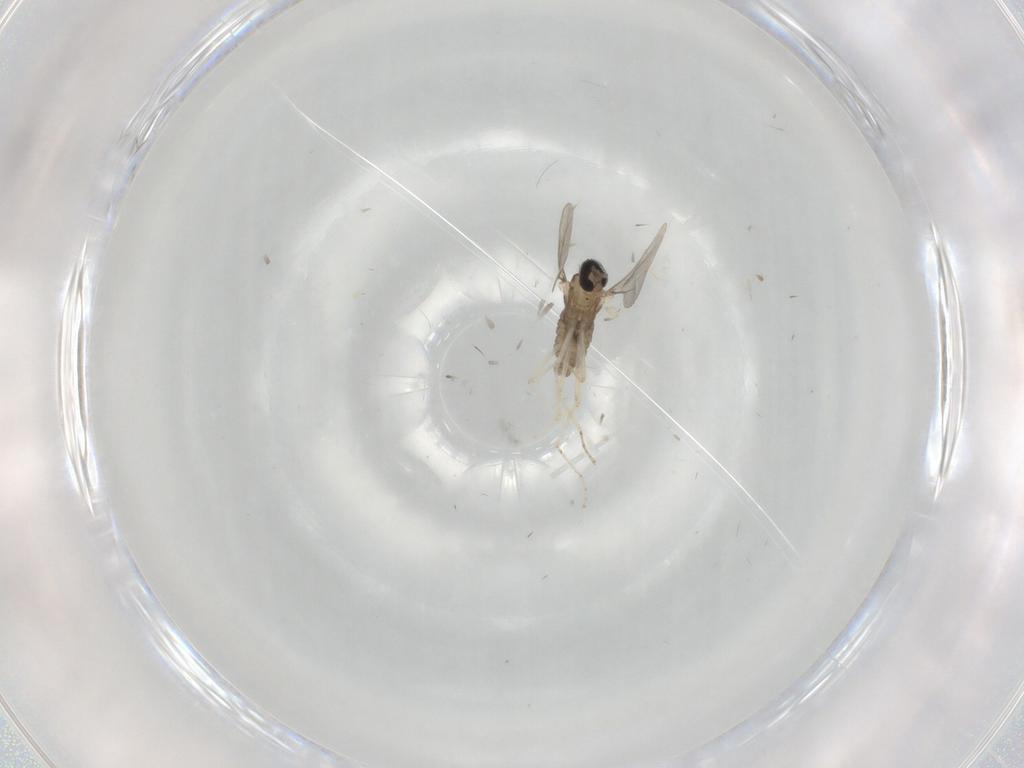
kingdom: Animalia
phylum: Arthropoda
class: Insecta
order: Diptera
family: Cecidomyiidae
